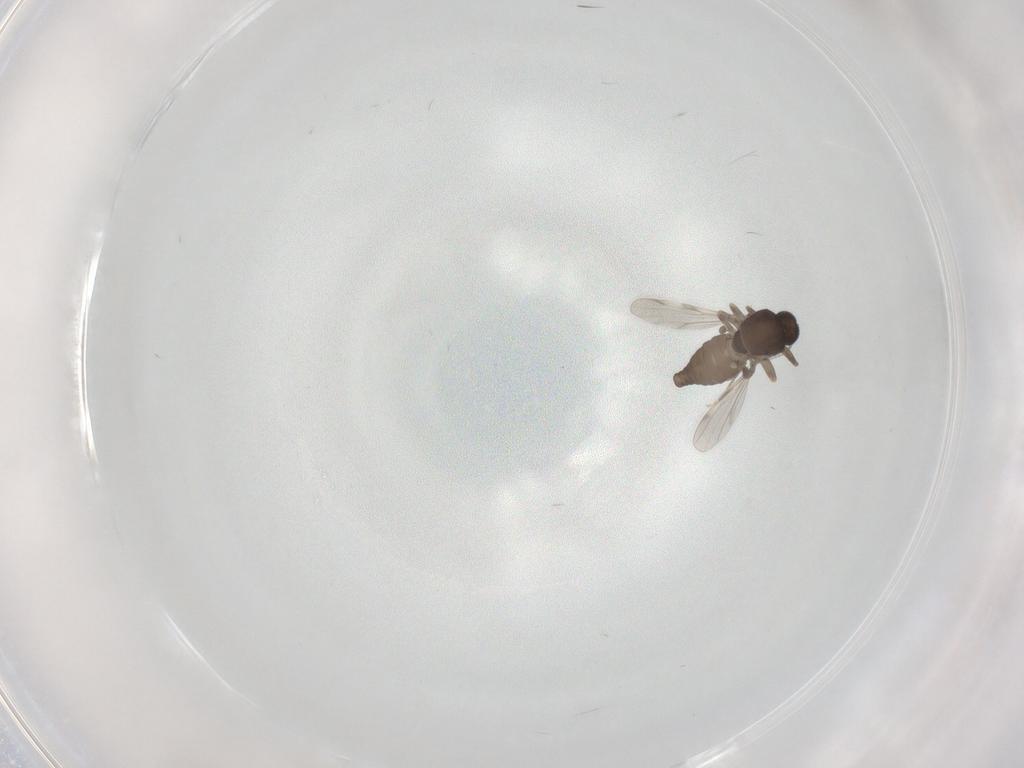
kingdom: Animalia
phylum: Arthropoda
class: Insecta
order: Diptera
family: Ceratopogonidae
